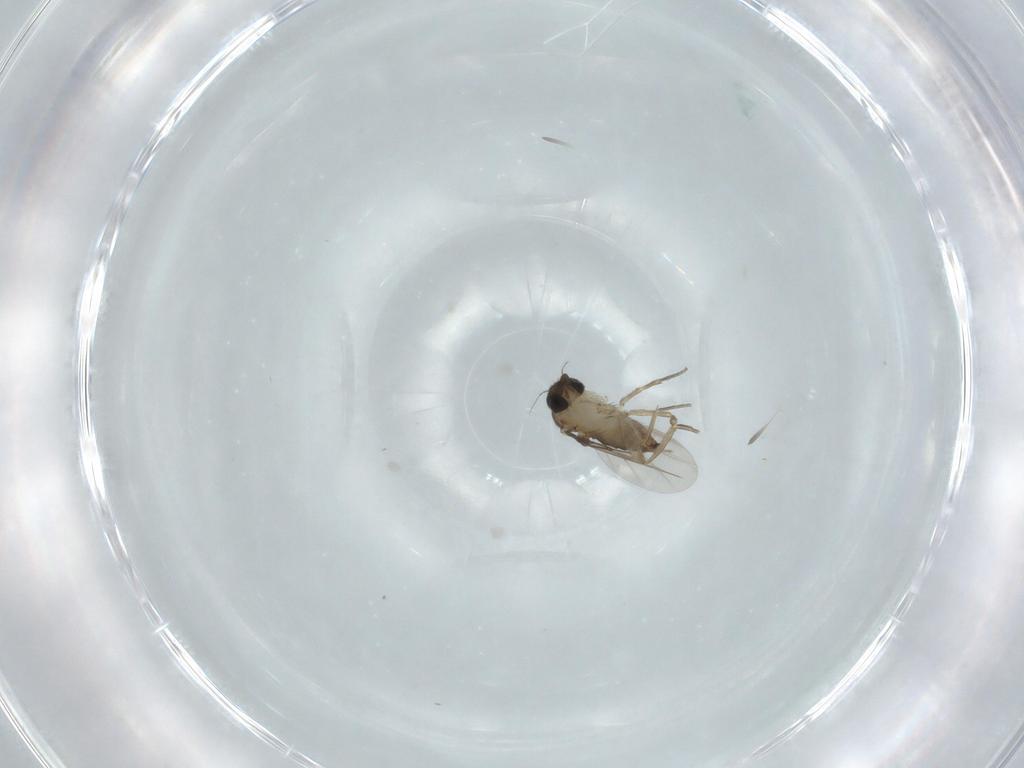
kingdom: Animalia
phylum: Arthropoda
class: Insecta
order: Diptera
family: Phoridae
